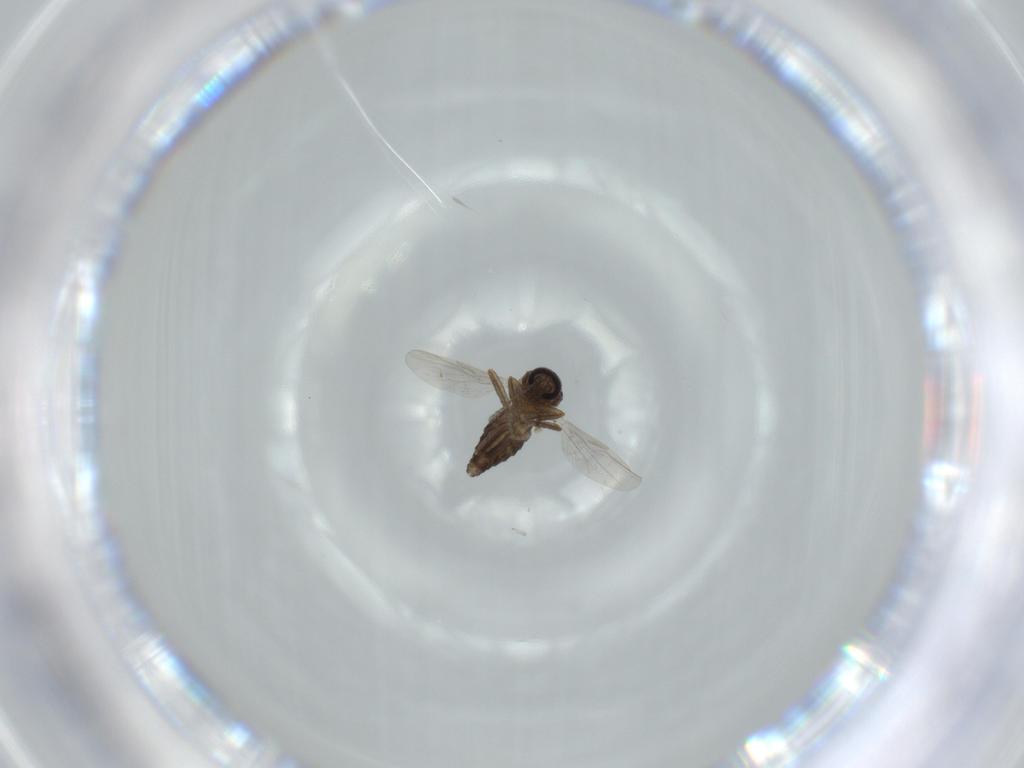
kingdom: Animalia
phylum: Arthropoda
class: Insecta
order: Diptera
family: Ceratopogonidae
